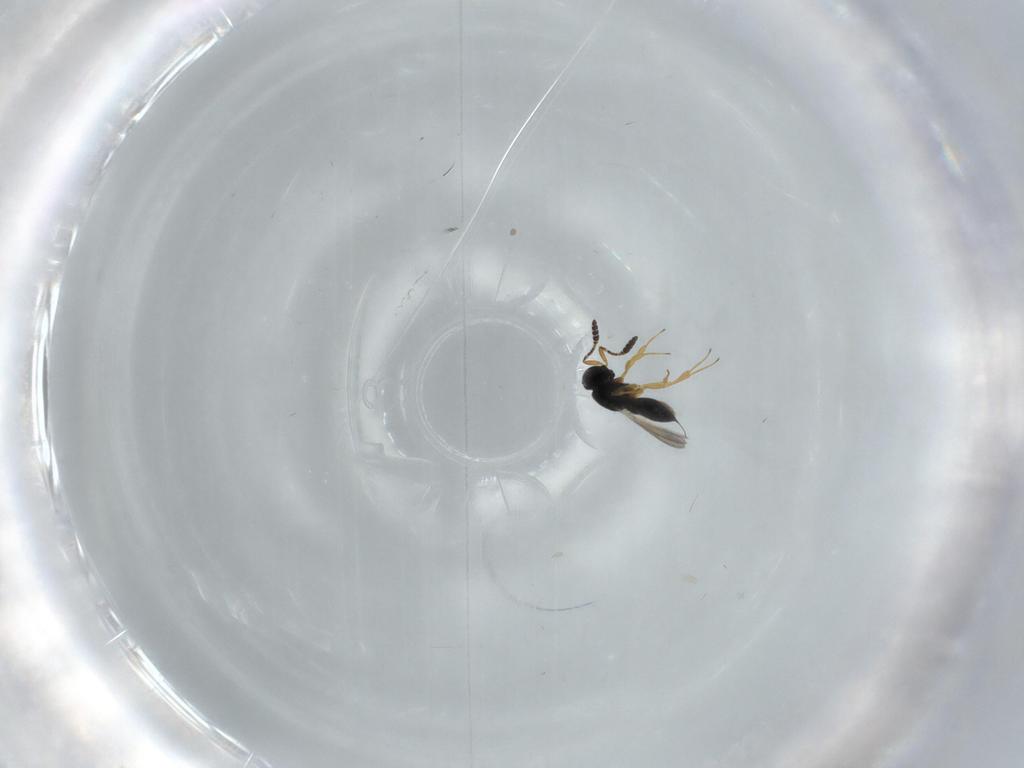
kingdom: Animalia
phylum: Arthropoda
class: Insecta
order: Hymenoptera
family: Scelionidae
